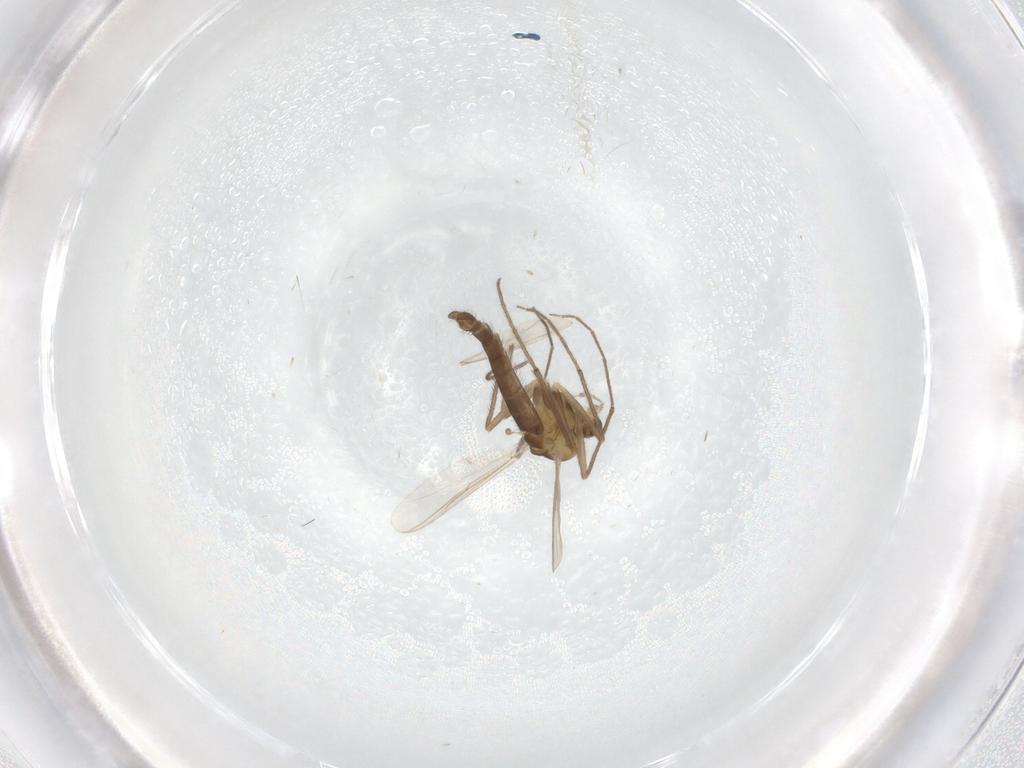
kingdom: Animalia
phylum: Arthropoda
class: Insecta
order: Diptera
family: Chironomidae
